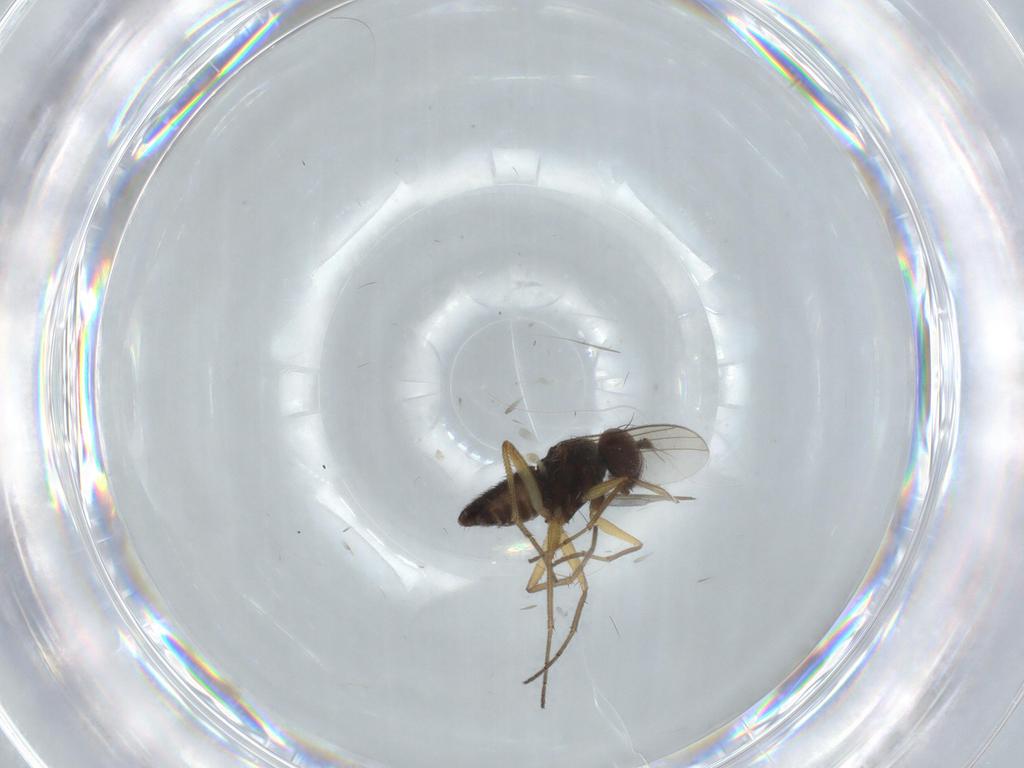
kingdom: Animalia
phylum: Arthropoda
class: Insecta
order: Diptera
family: Dolichopodidae
